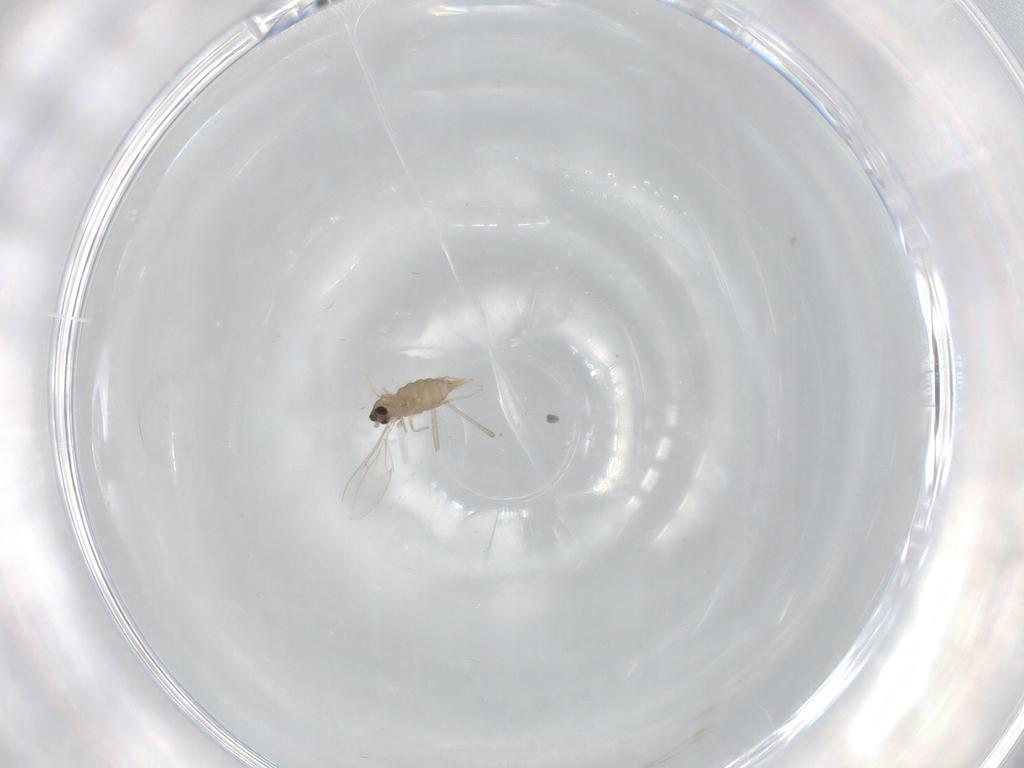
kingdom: Animalia
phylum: Arthropoda
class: Insecta
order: Diptera
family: Cecidomyiidae
